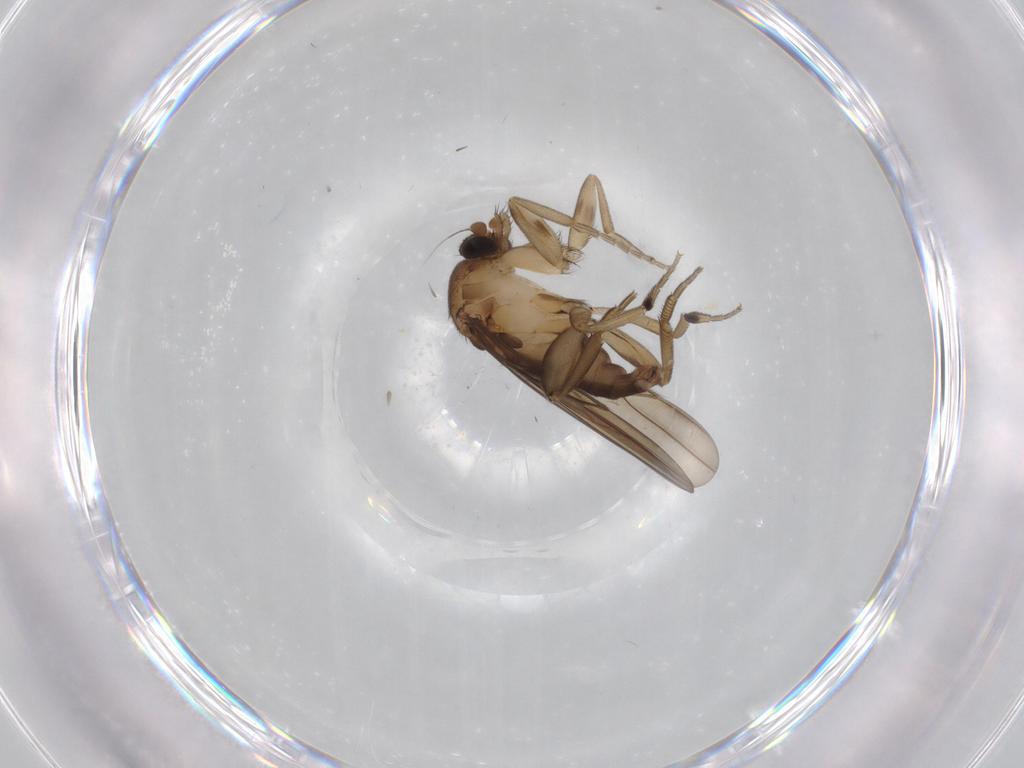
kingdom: Animalia
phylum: Arthropoda
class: Insecta
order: Diptera
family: Phoridae
